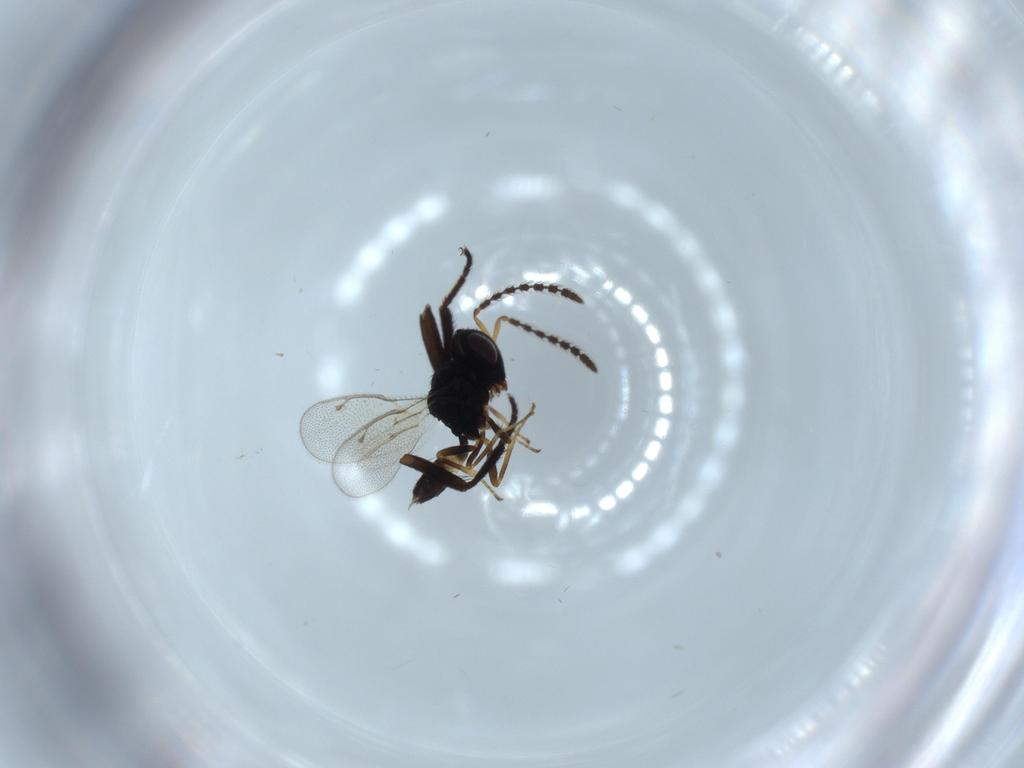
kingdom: Animalia
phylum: Arthropoda
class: Insecta
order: Hymenoptera
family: Pteromalidae
